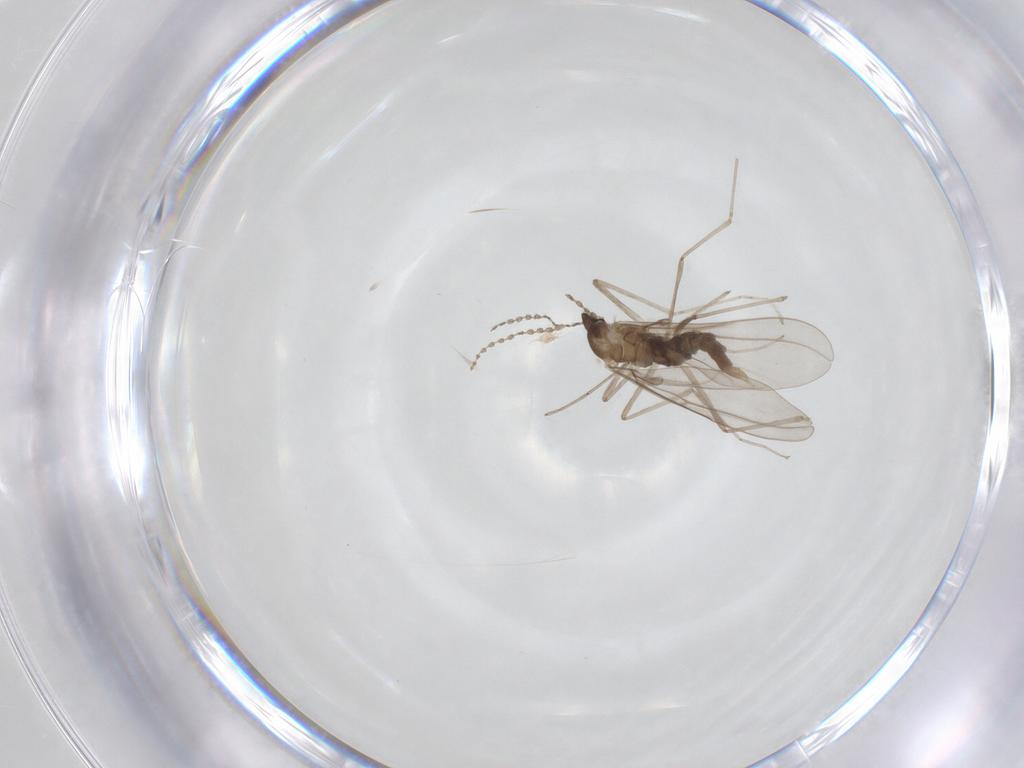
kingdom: Animalia
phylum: Arthropoda
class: Insecta
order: Diptera
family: Cecidomyiidae
